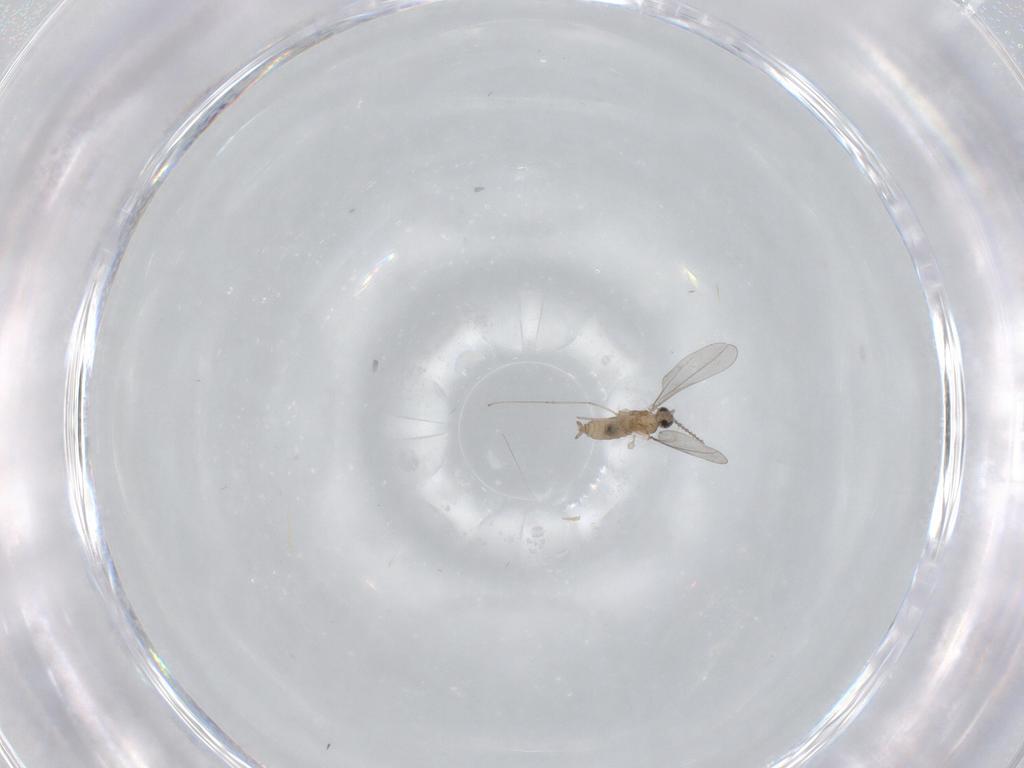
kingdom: Animalia
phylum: Arthropoda
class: Insecta
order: Diptera
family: Cecidomyiidae
